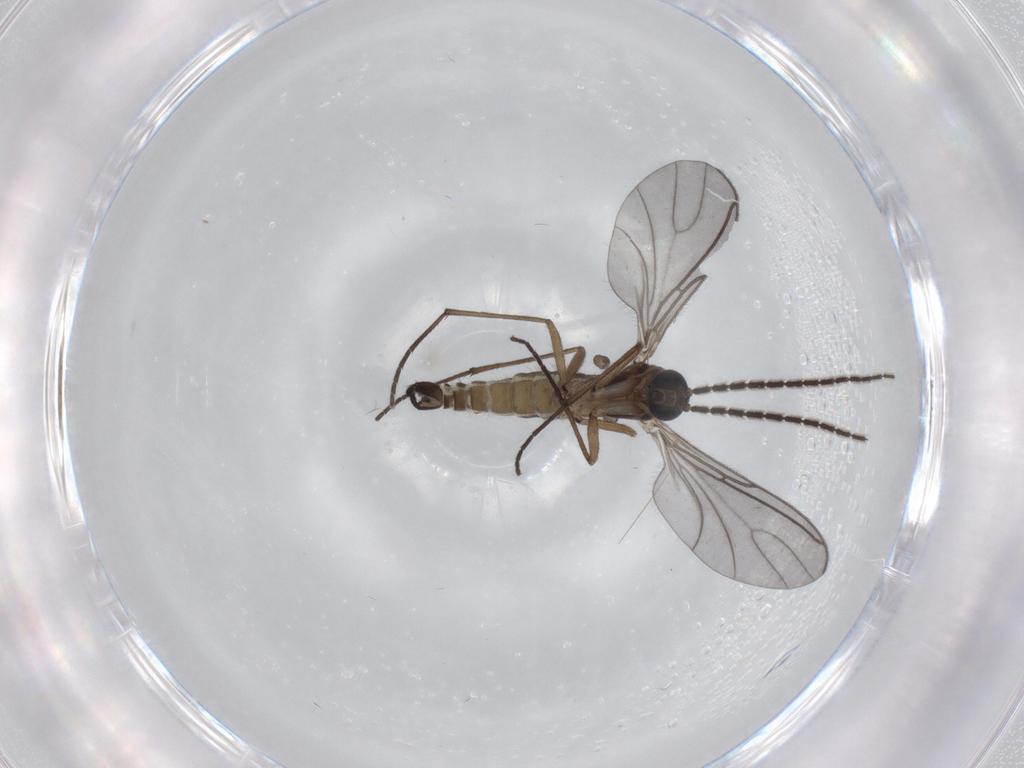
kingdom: Animalia
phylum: Arthropoda
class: Insecta
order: Diptera
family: Sciaridae
